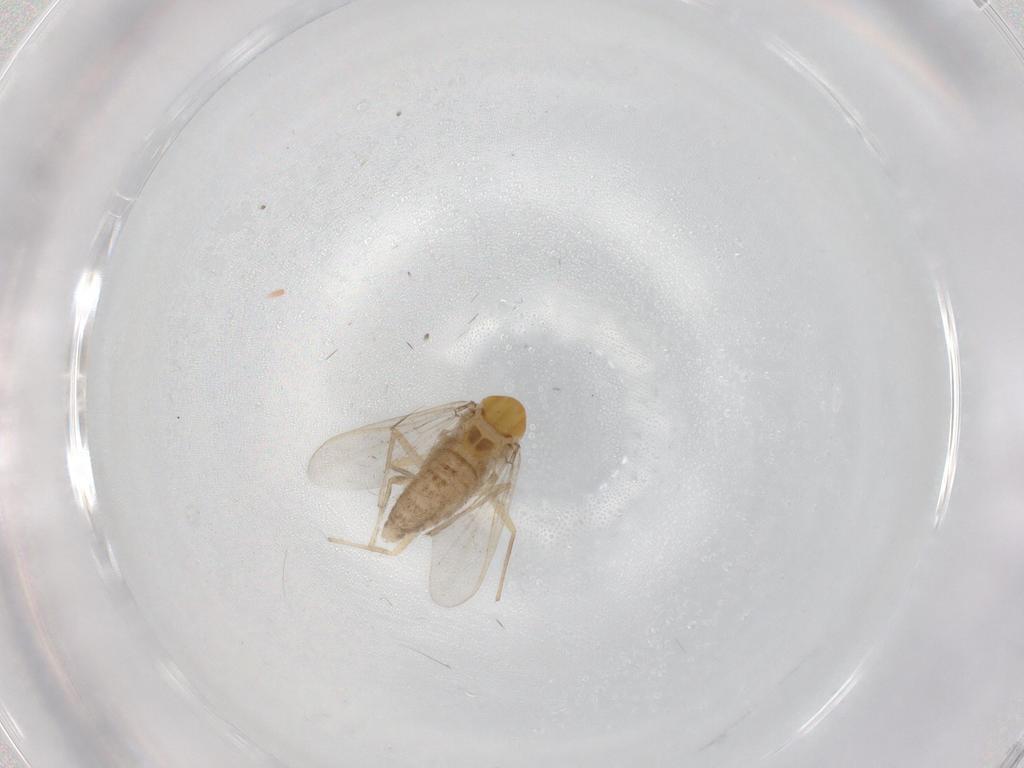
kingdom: Animalia
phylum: Arthropoda
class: Insecta
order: Diptera
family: Chironomidae
